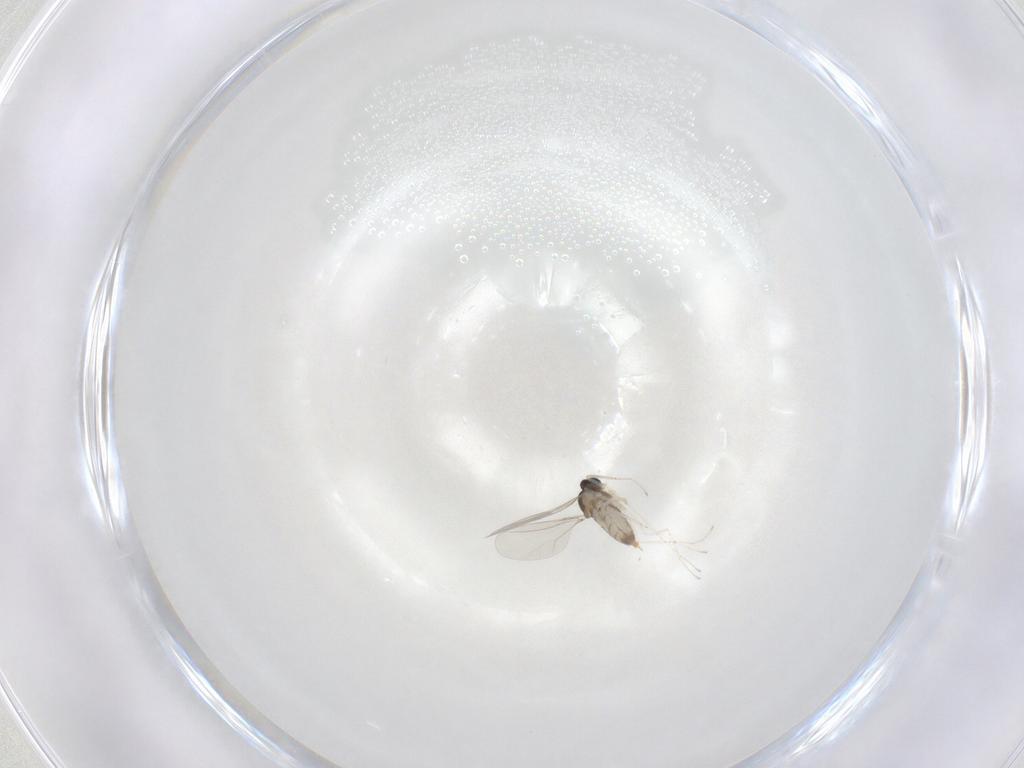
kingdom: Animalia
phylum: Arthropoda
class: Insecta
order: Diptera
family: Cecidomyiidae
